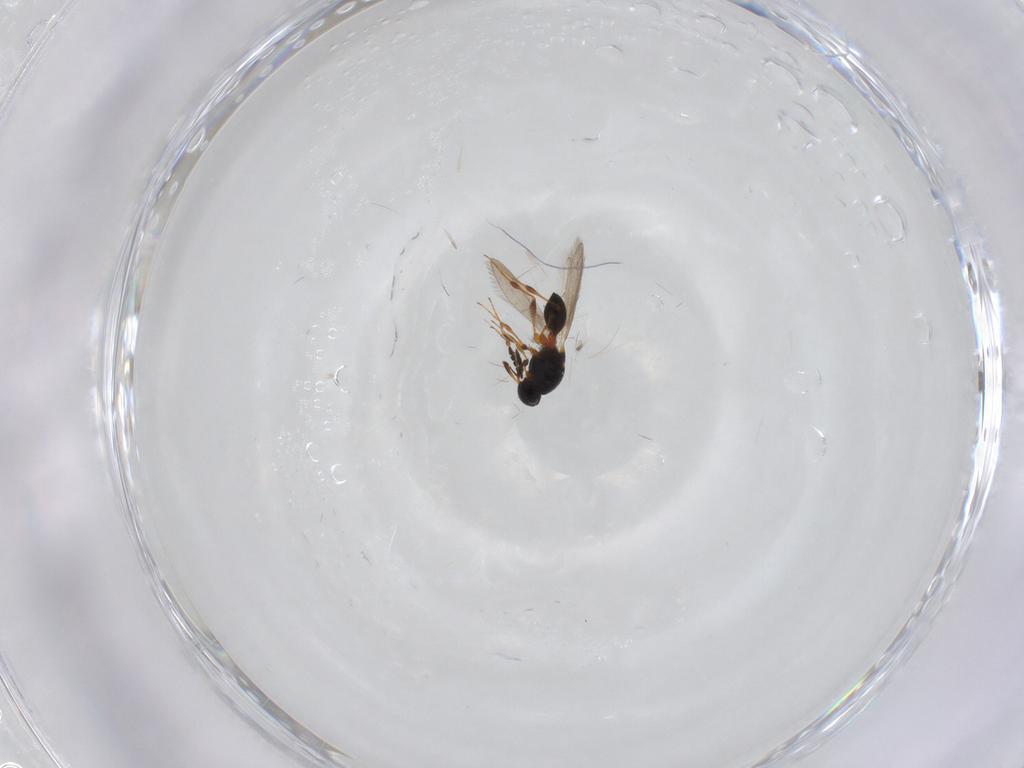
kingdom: Animalia
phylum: Arthropoda
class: Insecta
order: Hymenoptera
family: Platygastridae
